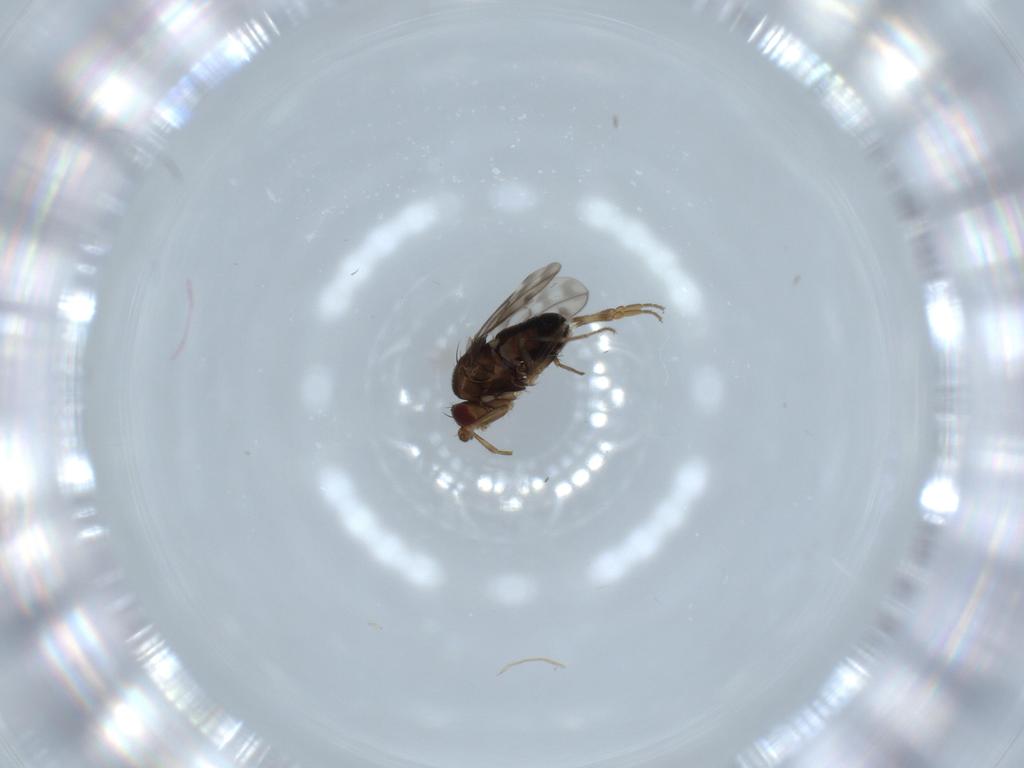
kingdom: Animalia
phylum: Arthropoda
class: Insecta
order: Diptera
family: Sphaeroceridae
